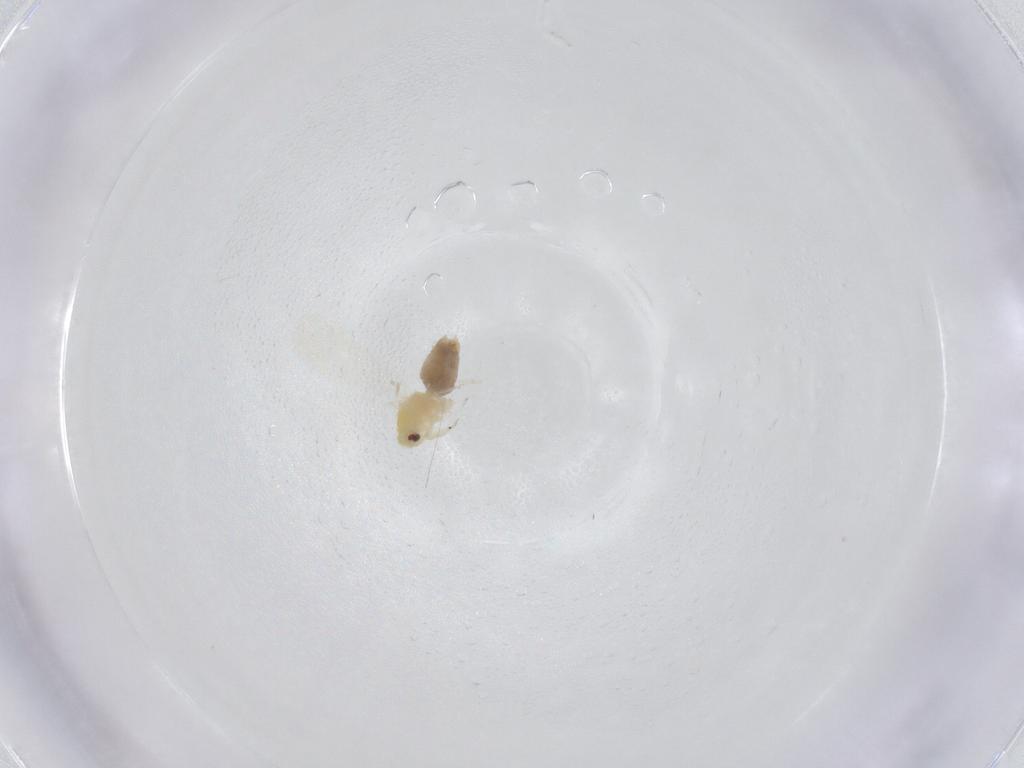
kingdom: Animalia
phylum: Arthropoda
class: Insecta
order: Hemiptera
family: Aleyrodidae
